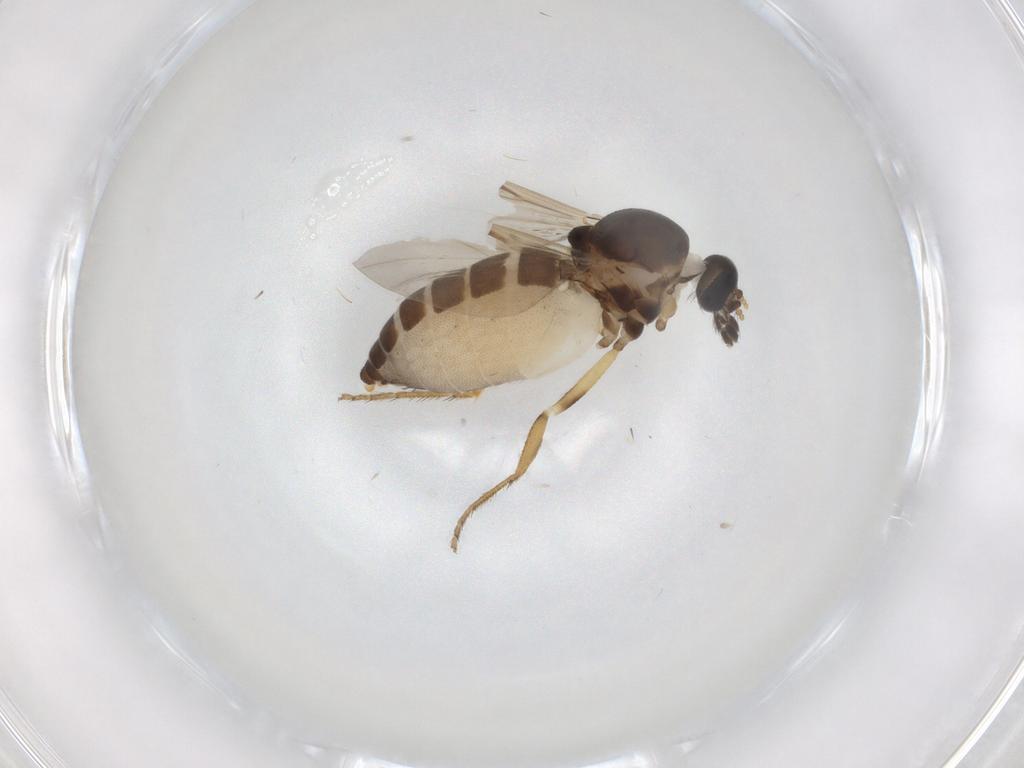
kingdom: Animalia
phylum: Arthropoda
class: Insecta
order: Diptera
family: Ceratopogonidae
